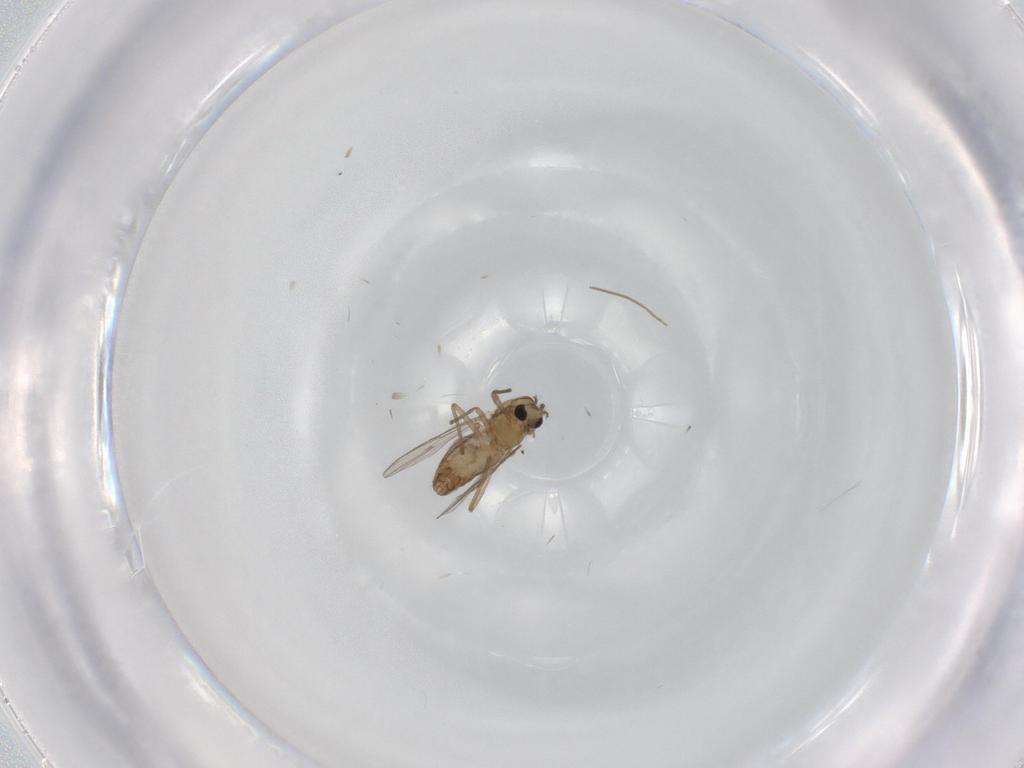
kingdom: Animalia
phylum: Arthropoda
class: Insecta
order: Diptera
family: Chironomidae
